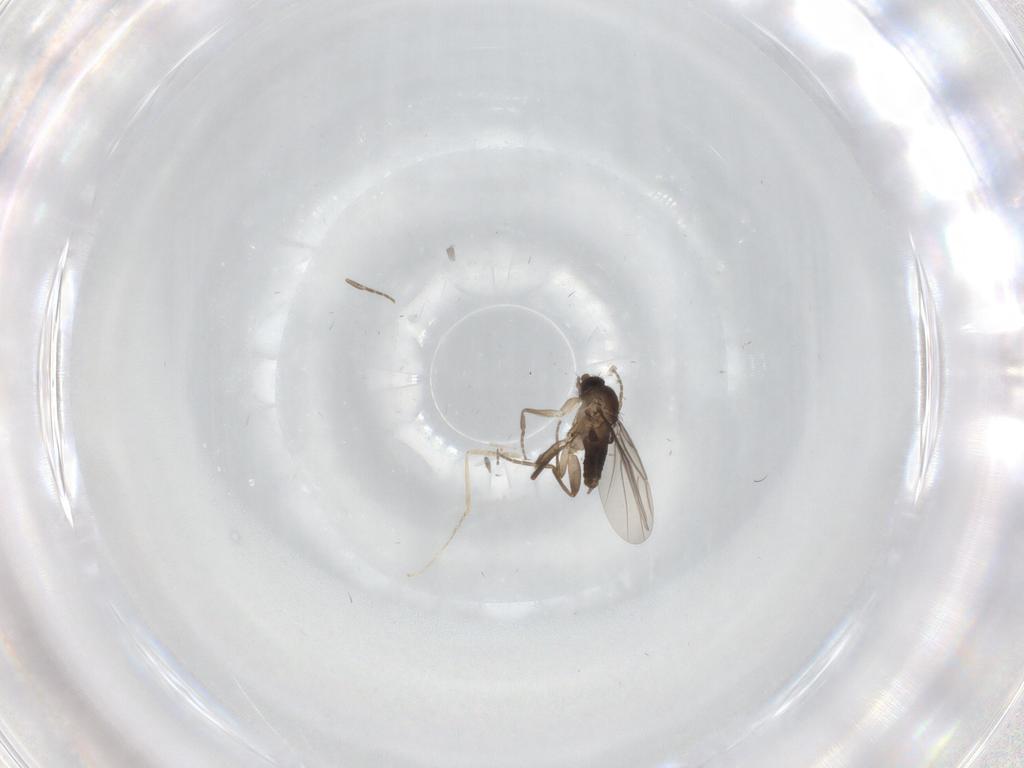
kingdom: Animalia
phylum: Arthropoda
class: Insecta
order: Diptera
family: Phoridae
